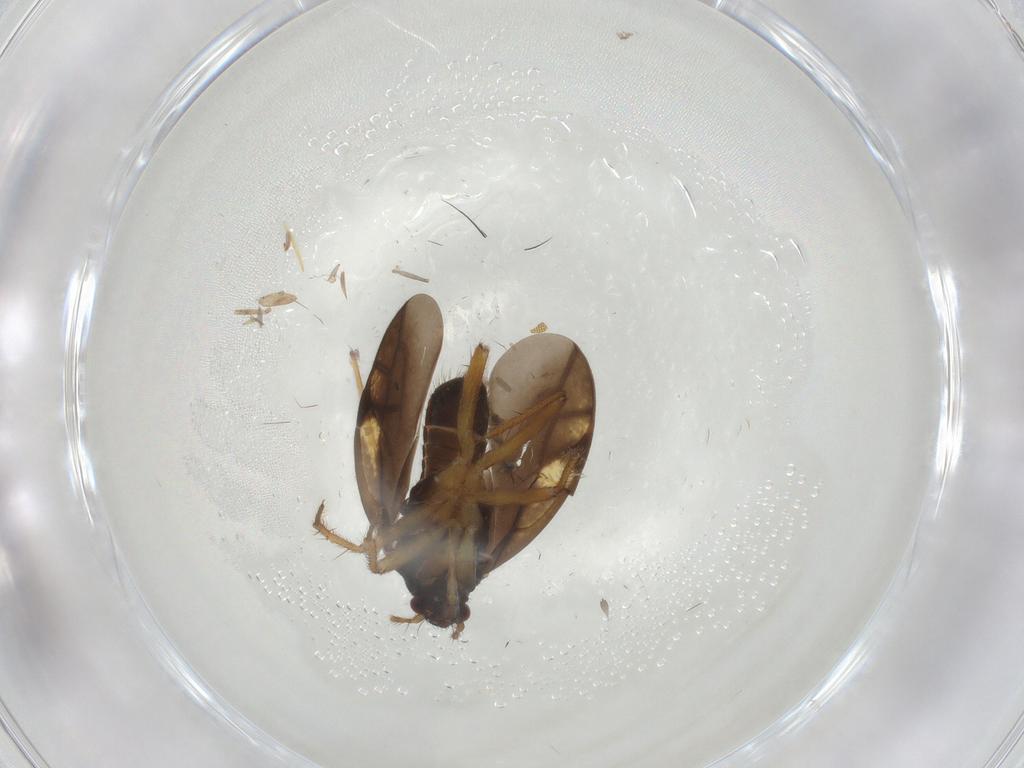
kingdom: Animalia
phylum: Arthropoda
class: Insecta
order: Hemiptera
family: Ceratocombidae
